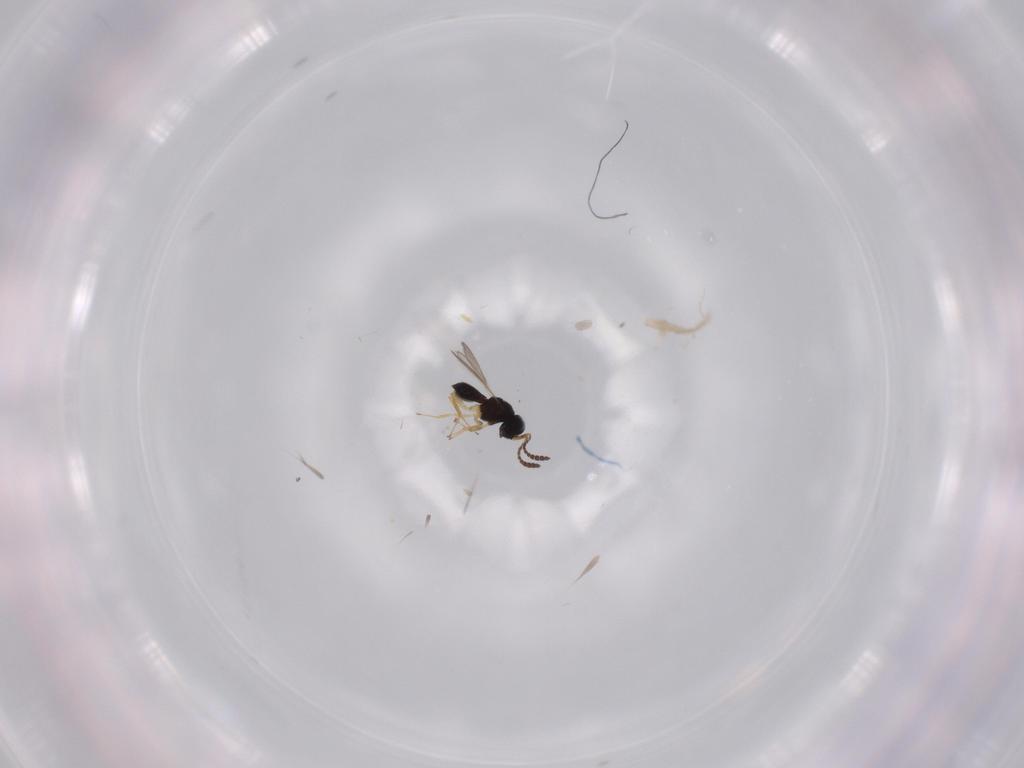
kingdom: Animalia
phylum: Arthropoda
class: Insecta
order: Hymenoptera
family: Scelionidae
